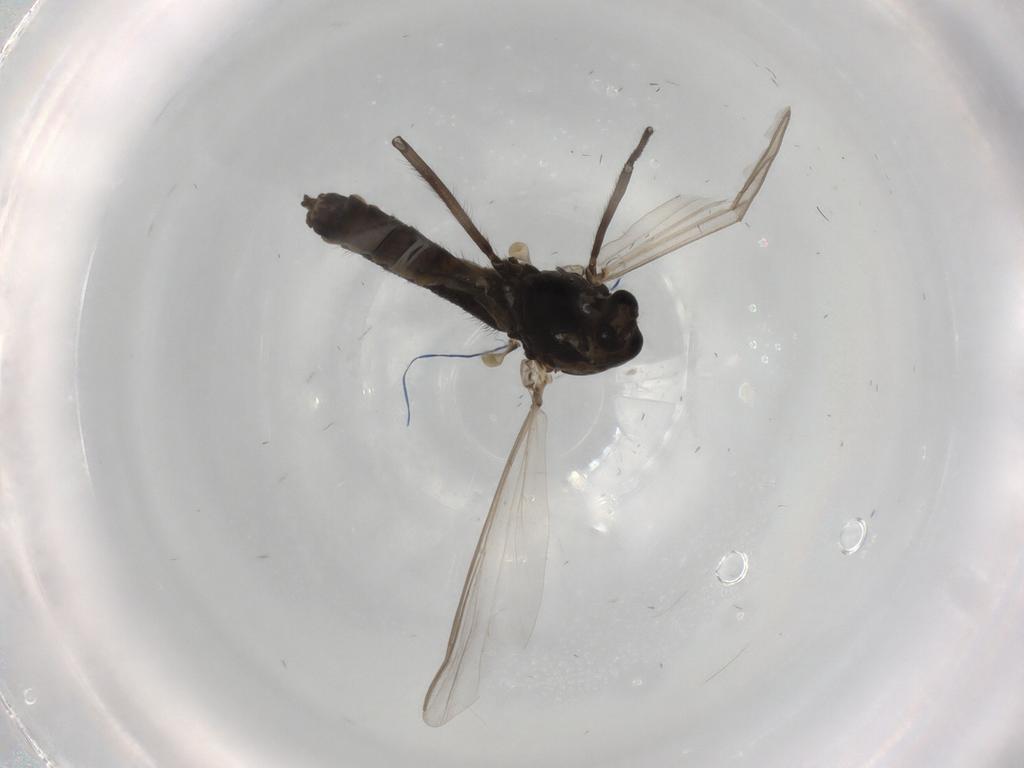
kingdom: Animalia
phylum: Arthropoda
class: Insecta
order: Diptera
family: Chironomidae
